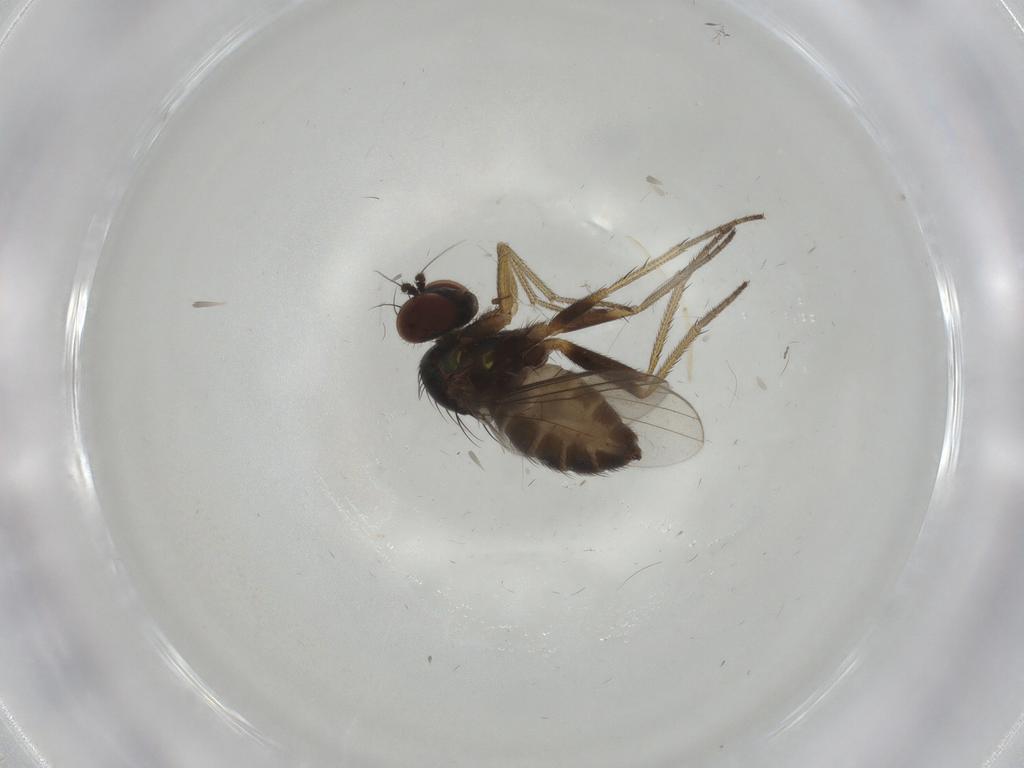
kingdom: Animalia
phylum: Arthropoda
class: Insecta
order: Diptera
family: Dolichopodidae
